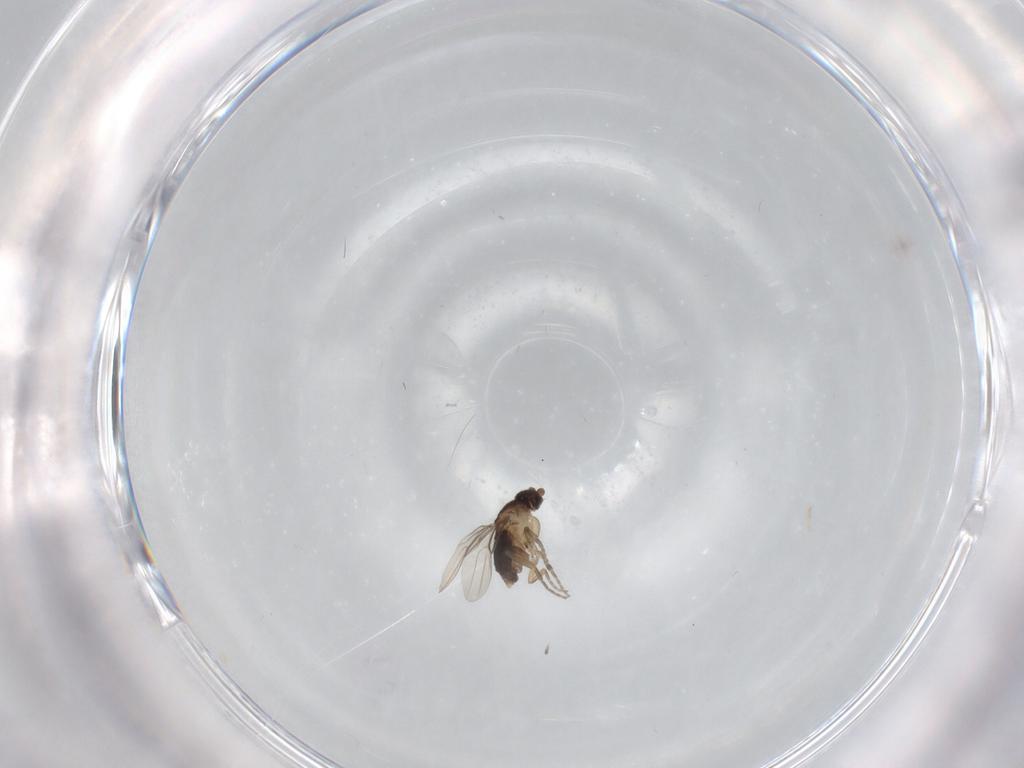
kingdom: Animalia
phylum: Arthropoda
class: Insecta
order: Diptera
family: Phoridae
